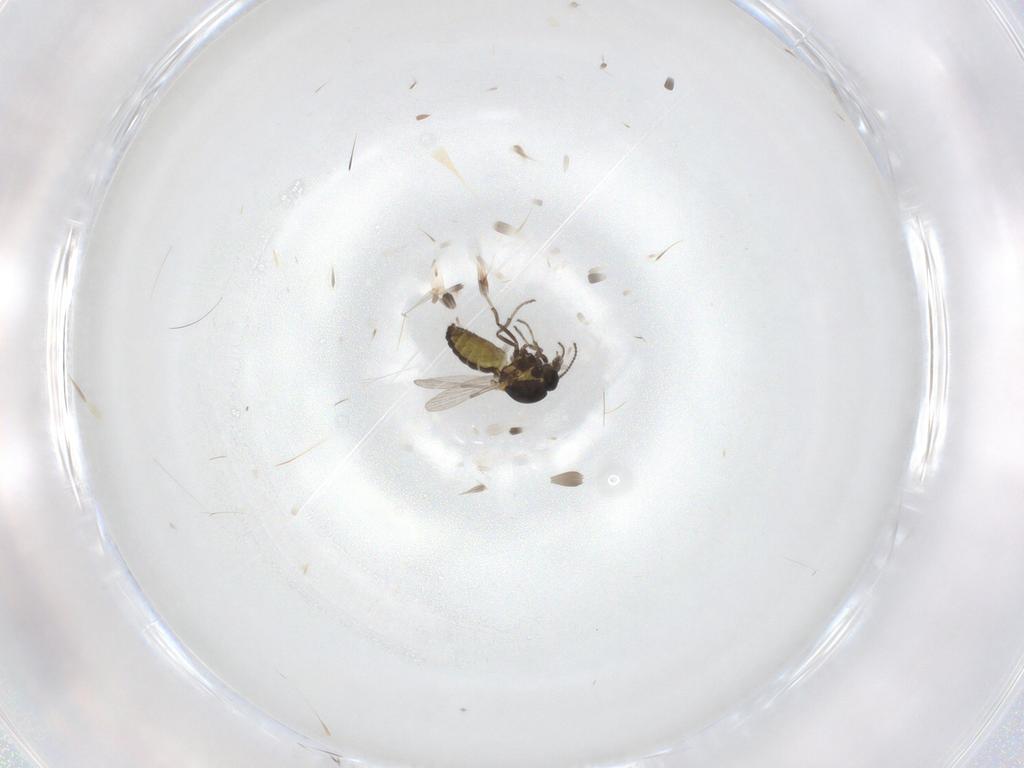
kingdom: Animalia
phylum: Arthropoda
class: Insecta
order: Diptera
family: Ceratopogonidae
